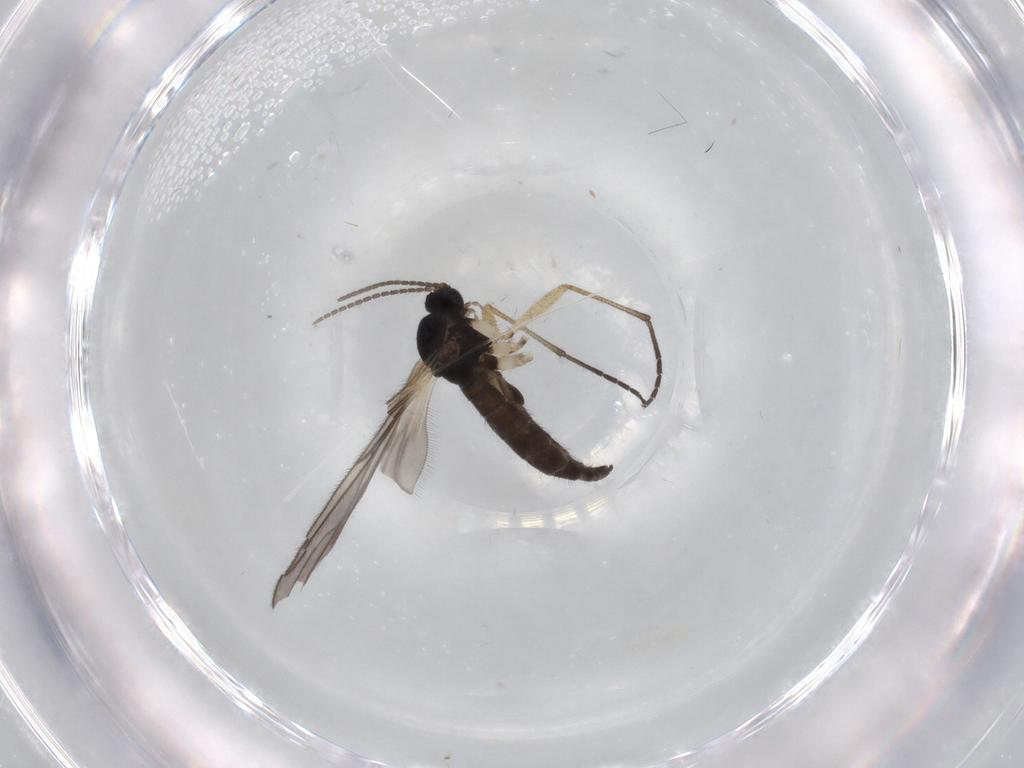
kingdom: Animalia
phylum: Arthropoda
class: Insecta
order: Diptera
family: Sciaridae
